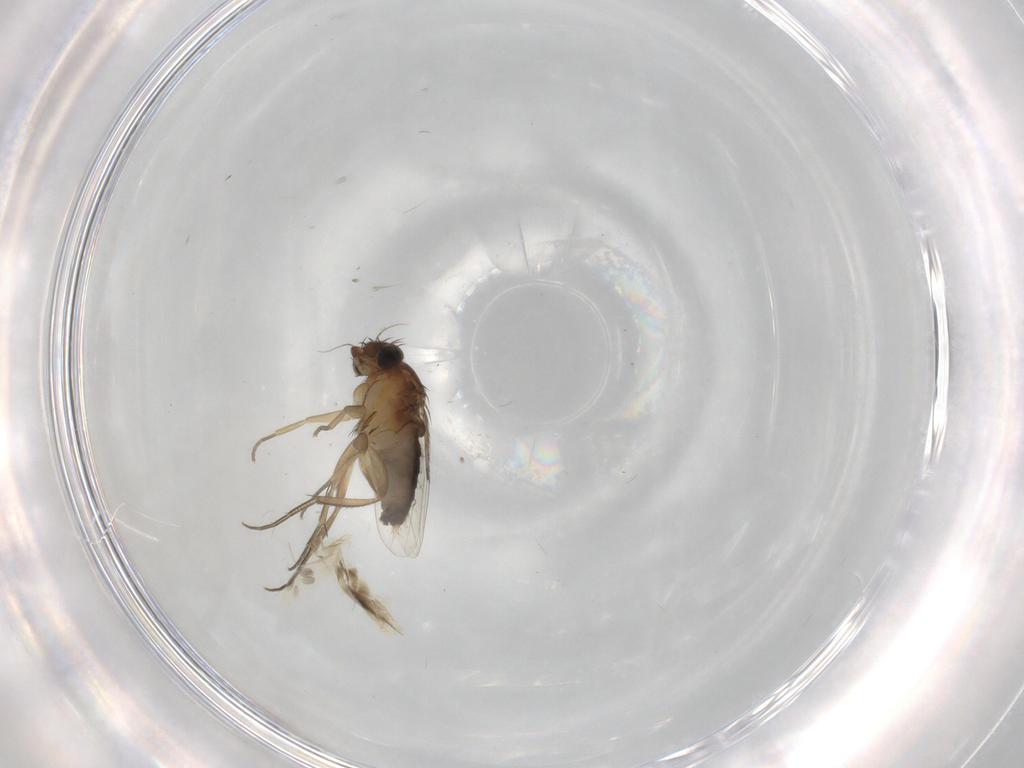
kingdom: Animalia
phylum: Arthropoda
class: Insecta
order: Diptera
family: Phoridae
